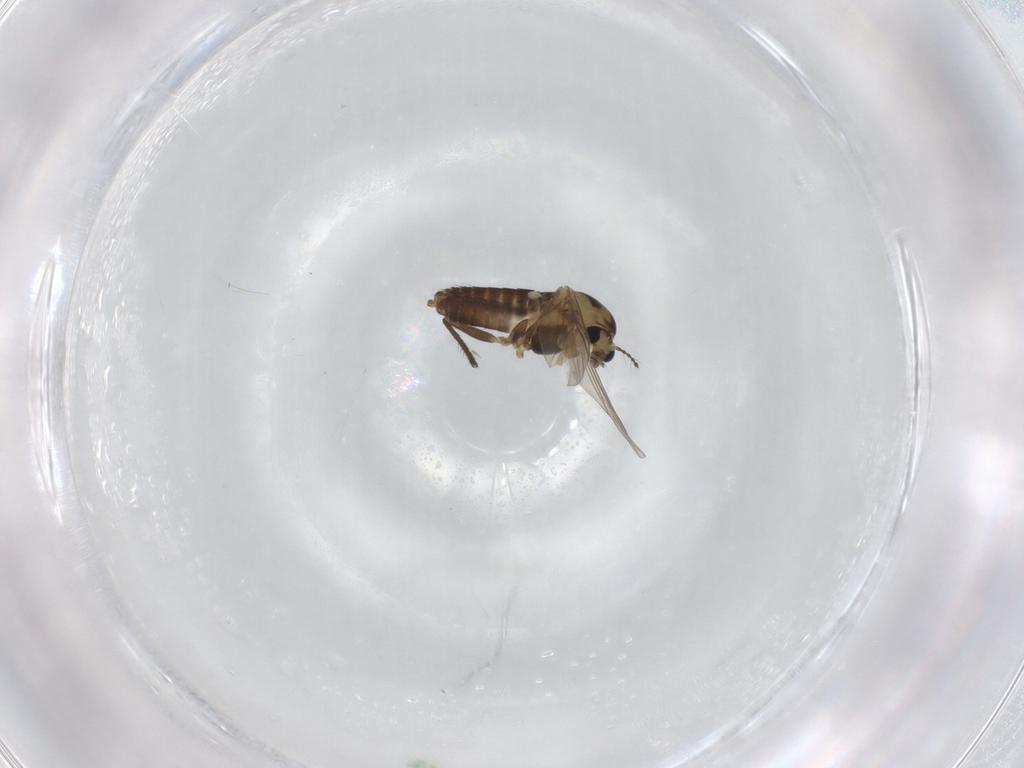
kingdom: Animalia
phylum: Arthropoda
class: Insecta
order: Diptera
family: Chironomidae
